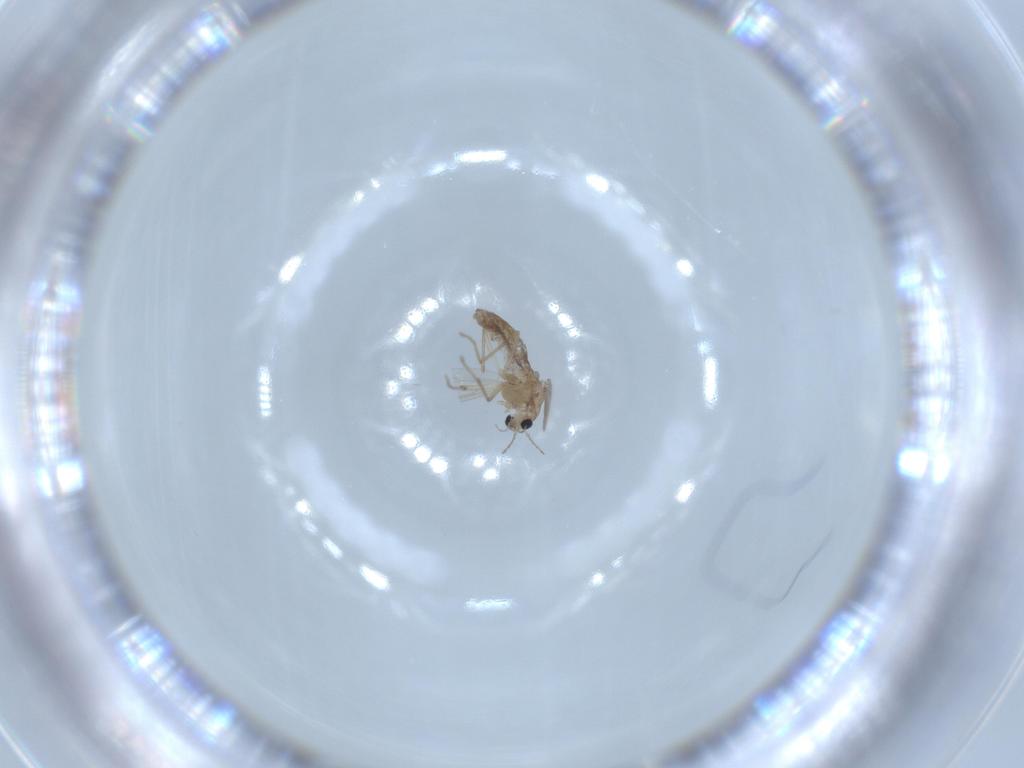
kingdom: Animalia
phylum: Arthropoda
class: Insecta
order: Diptera
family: Chironomidae
